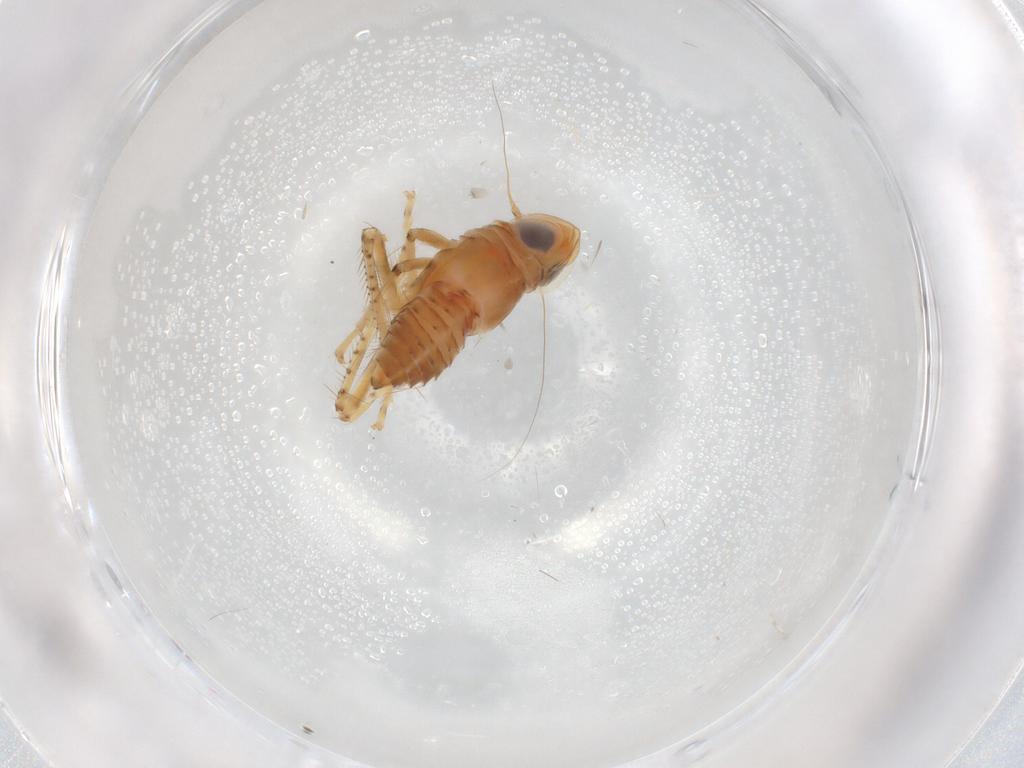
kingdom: Animalia
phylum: Arthropoda
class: Insecta
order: Hemiptera
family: Cicadellidae
